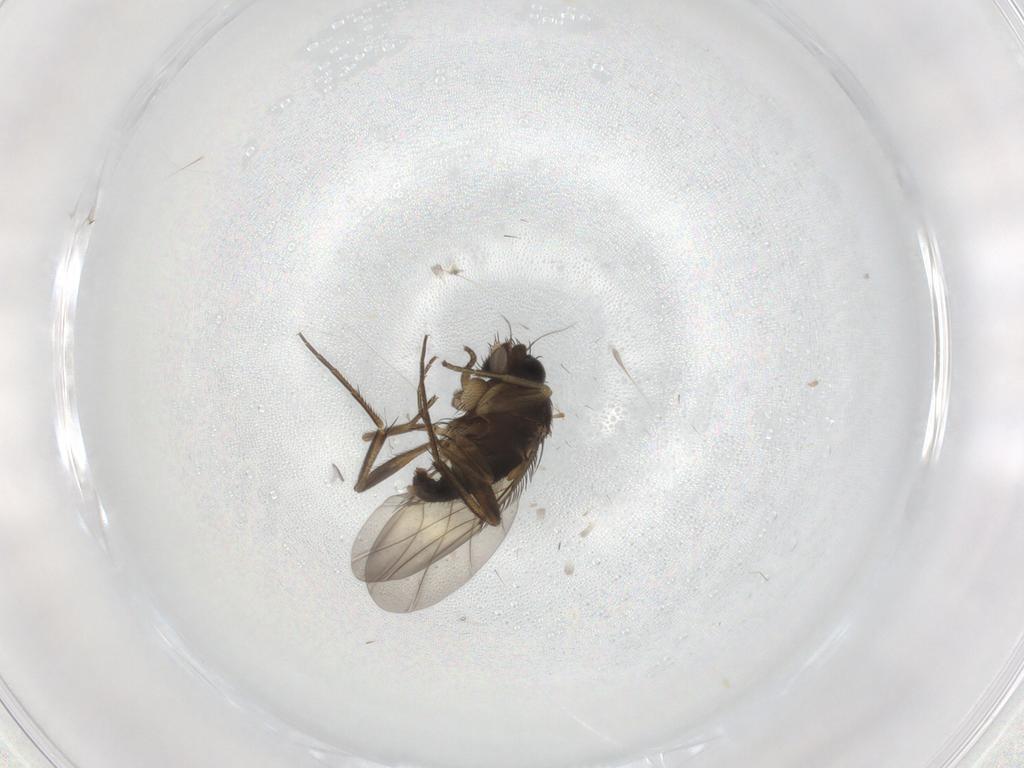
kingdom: Animalia
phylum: Arthropoda
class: Insecta
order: Diptera
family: Phoridae
